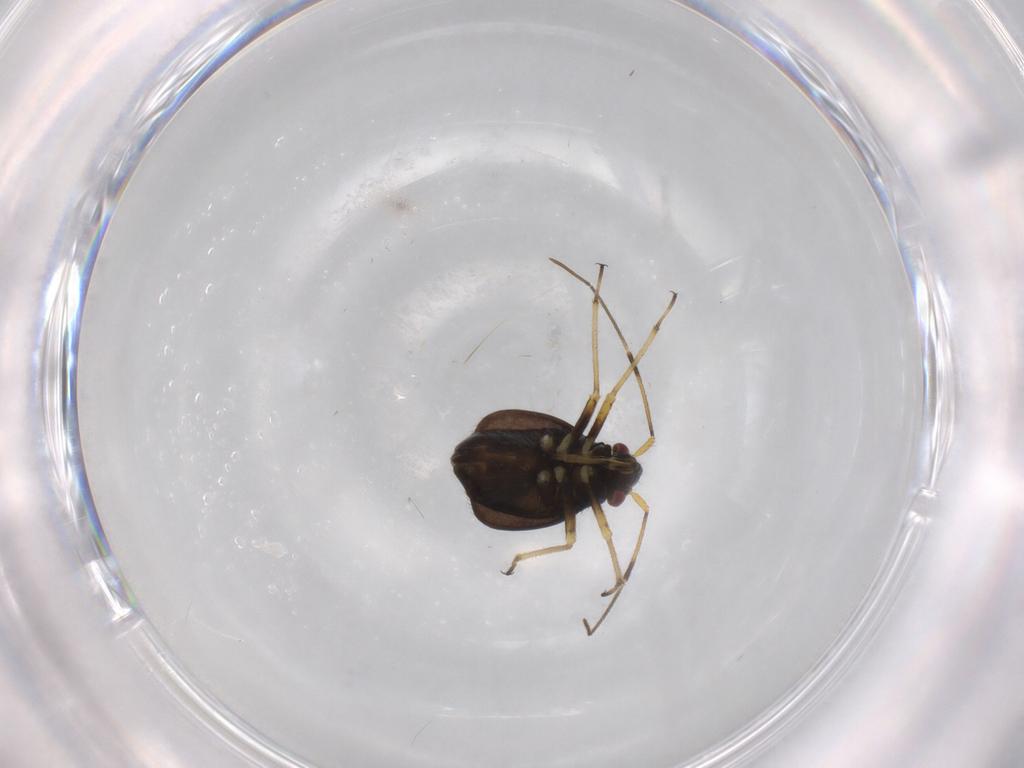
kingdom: Animalia
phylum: Arthropoda
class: Insecta
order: Hemiptera
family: Miridae
